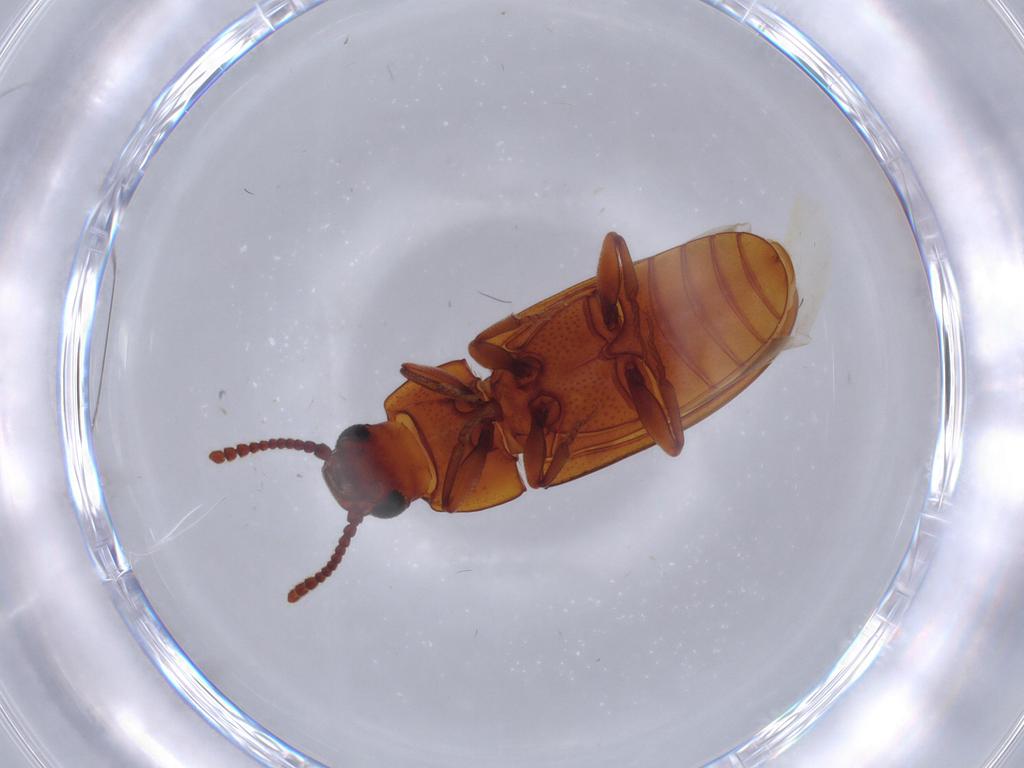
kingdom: Animalia
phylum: Arthropoda
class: Insecta
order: Coleoptera
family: Erotylidae
